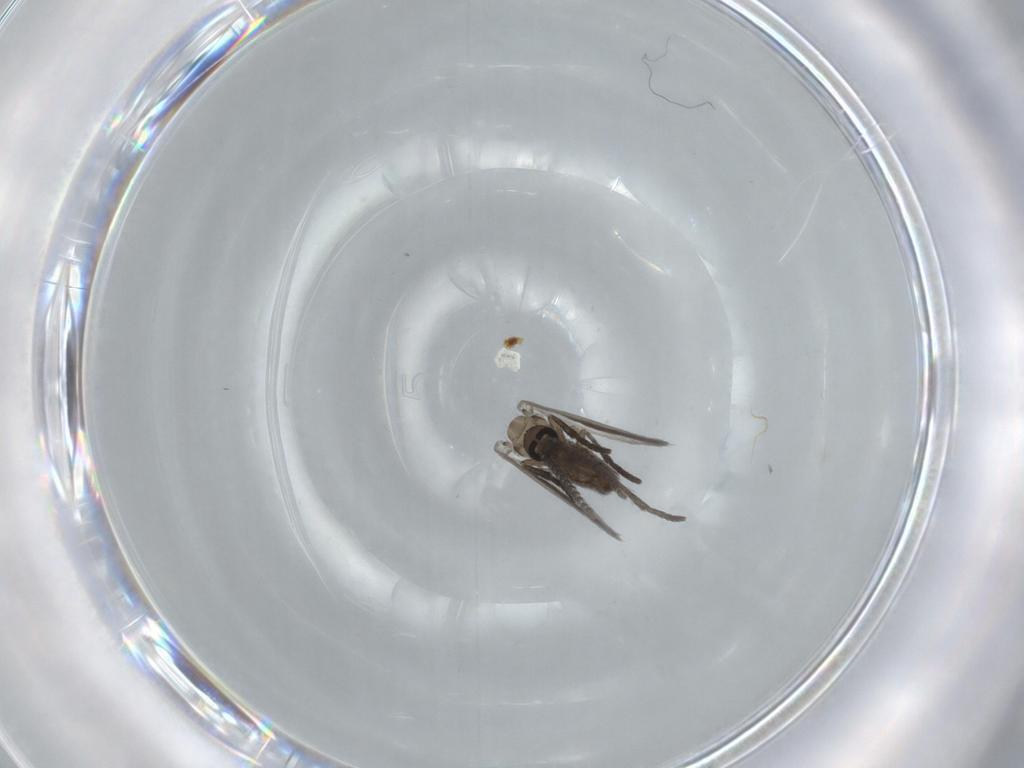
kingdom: Animalia
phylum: Arthropoda
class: Insecta
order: Diptera
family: Psychodidae
